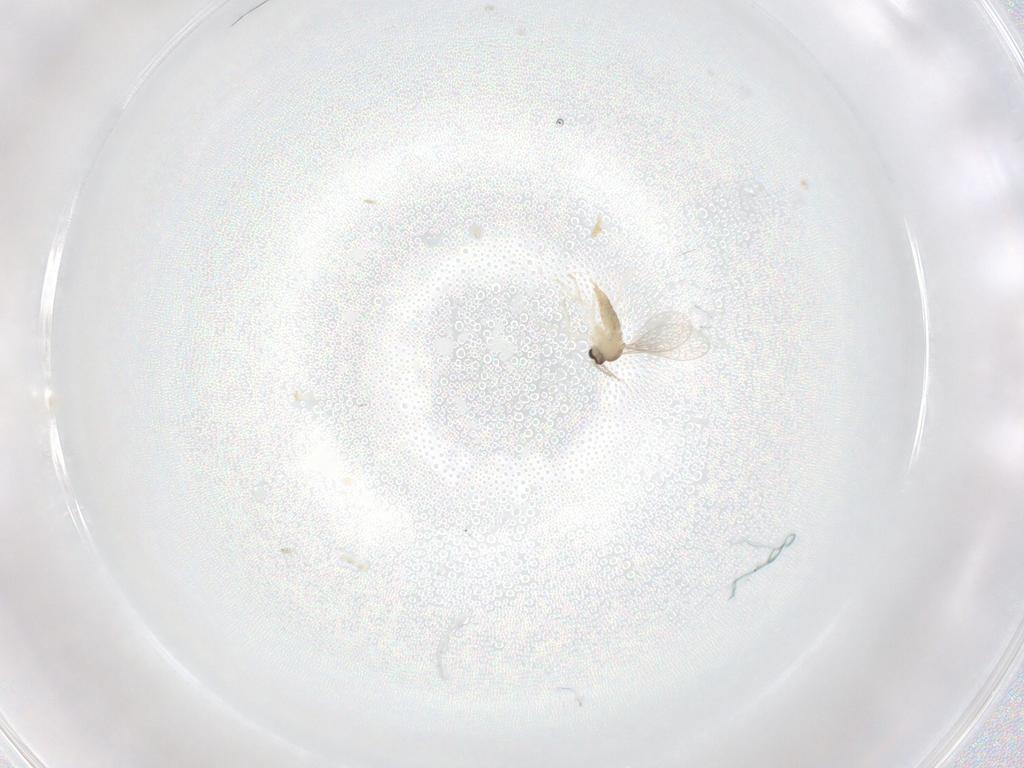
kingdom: Animalia
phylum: Arthropoda
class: Insecta
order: Diptera
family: Cecidomyiidae
